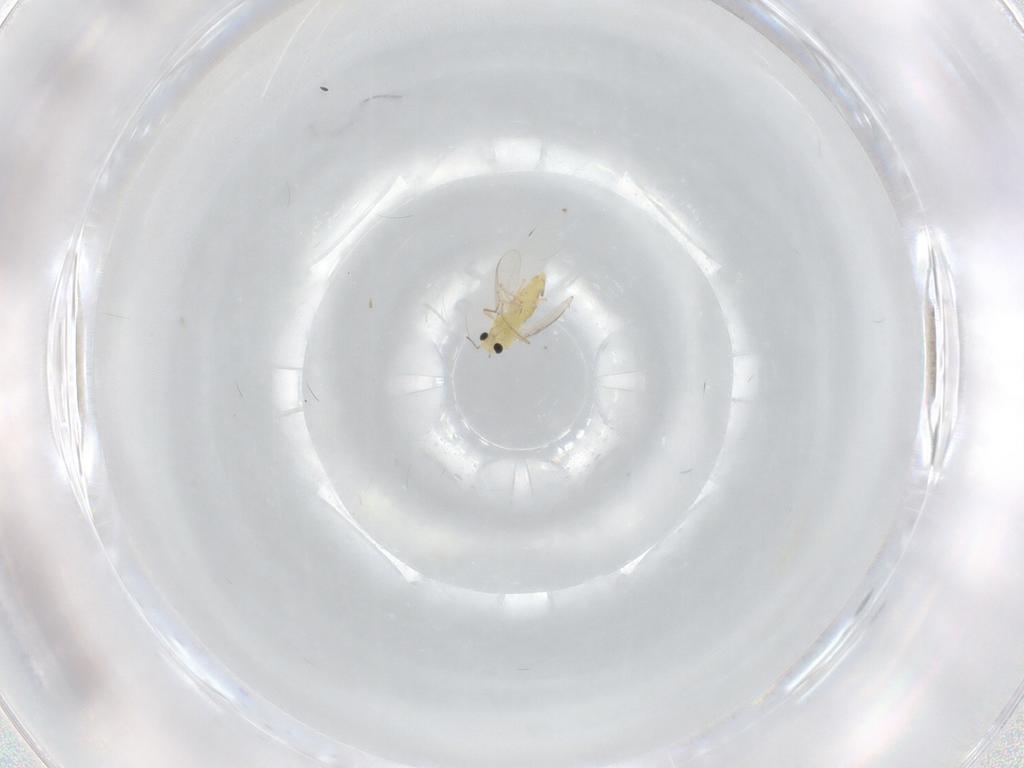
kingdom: Animalia
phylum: Arthropoda
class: Insecta
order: Diptera
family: Chironomidae
